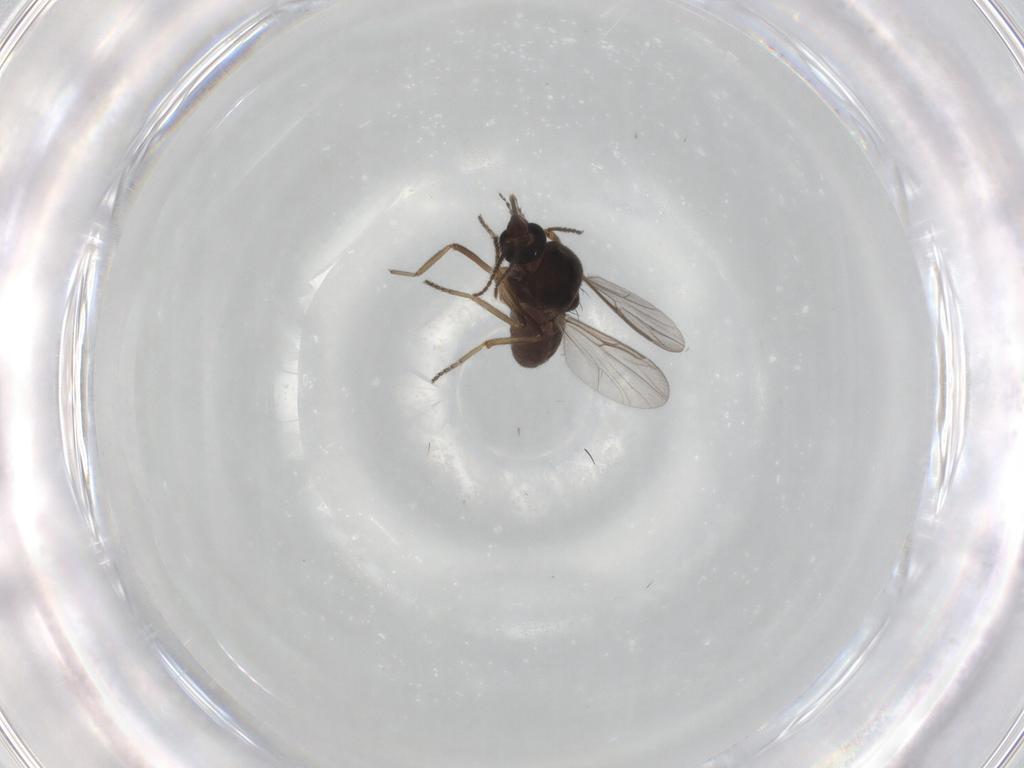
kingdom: Animalia
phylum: Arthropoda
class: Insecta
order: Diptera
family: Ceratopogonidae
